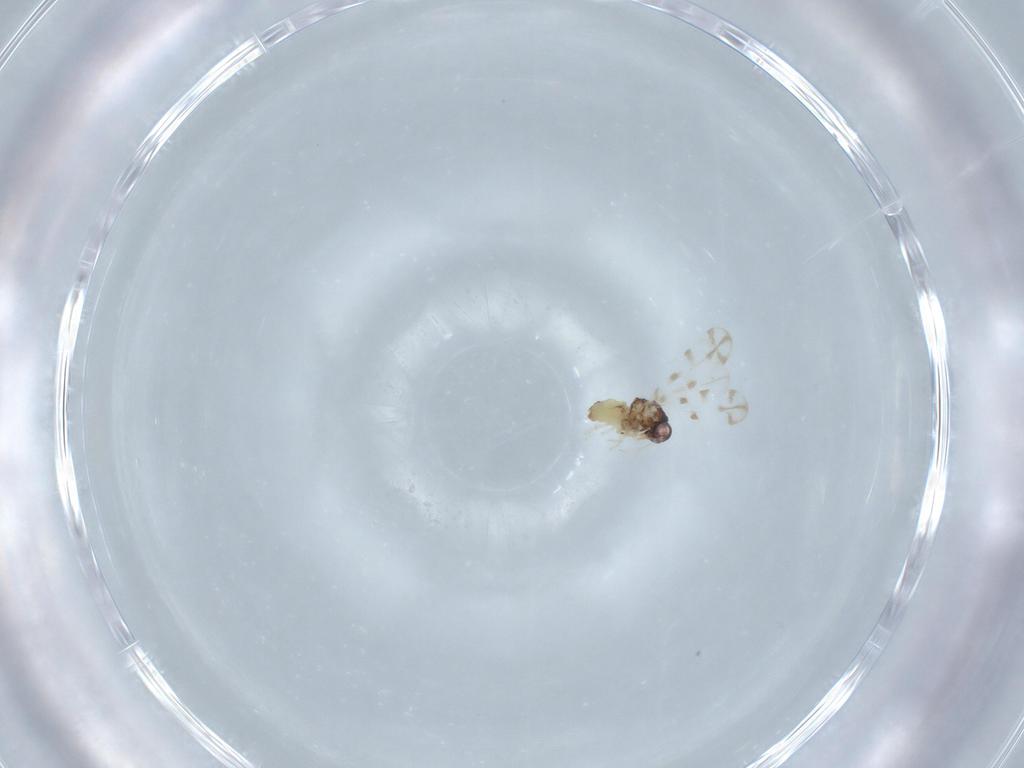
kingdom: Animalia
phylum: Arthropoda
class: Insecta
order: Hemiptera
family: Aleyrodidae
